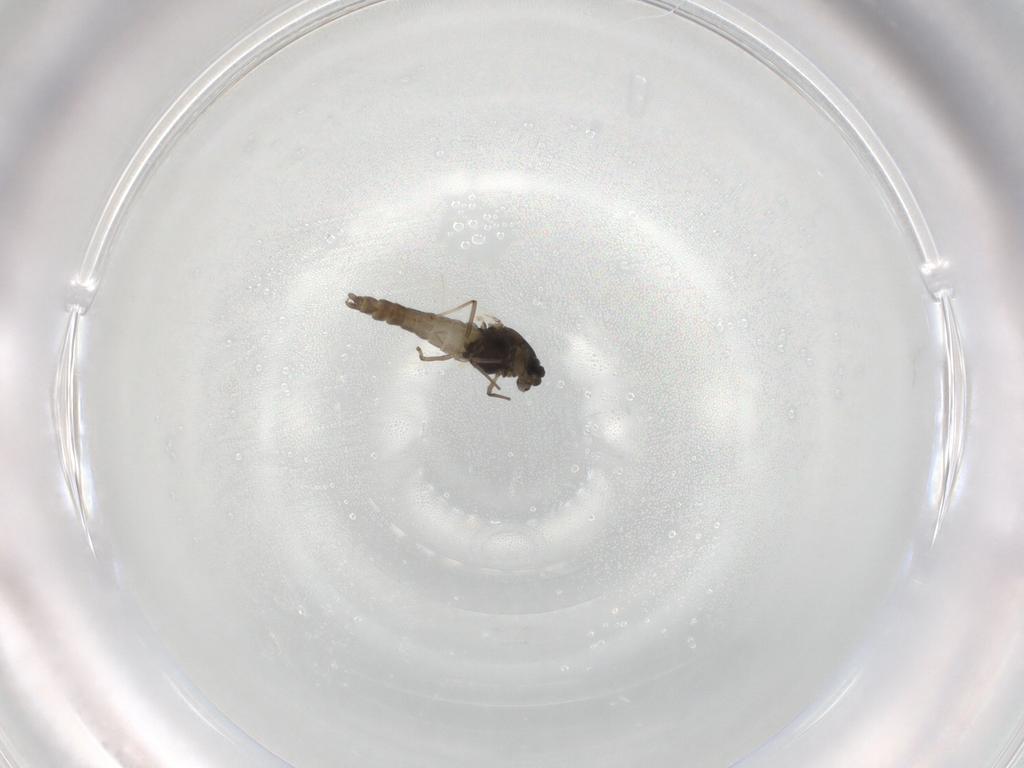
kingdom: Animalia
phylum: Arthropoda
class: Insecta
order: Diptera
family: Chironomidae
